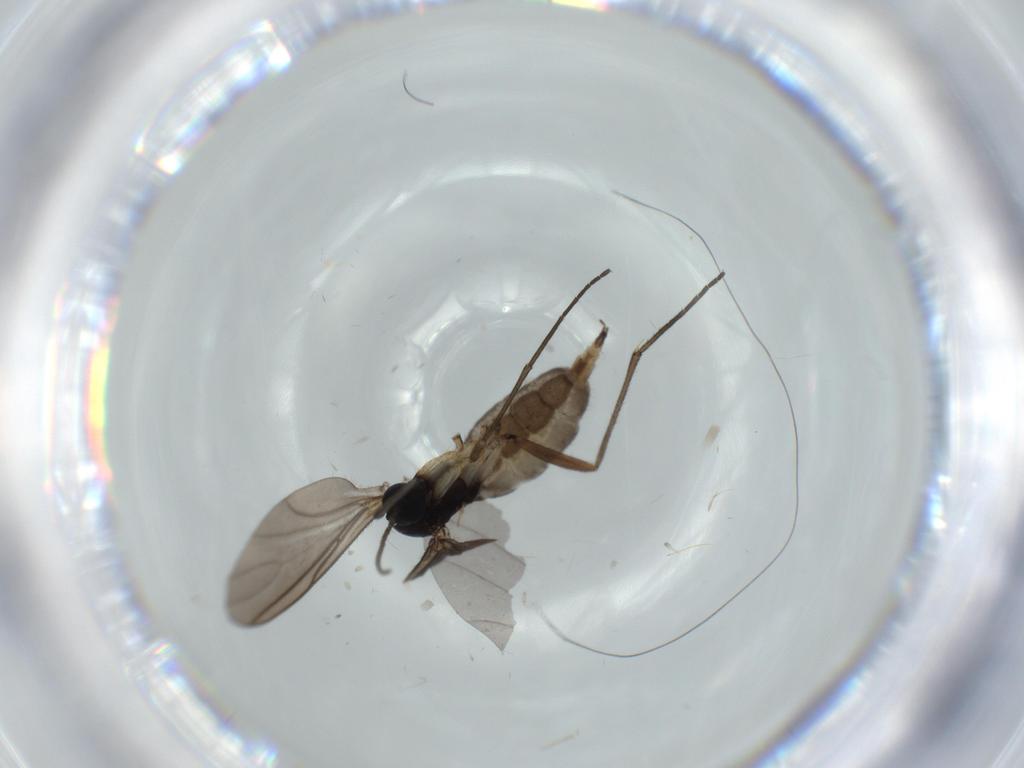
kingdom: Animalia
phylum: Arthropoda
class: Insecta
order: Diptera
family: Sciaridae
